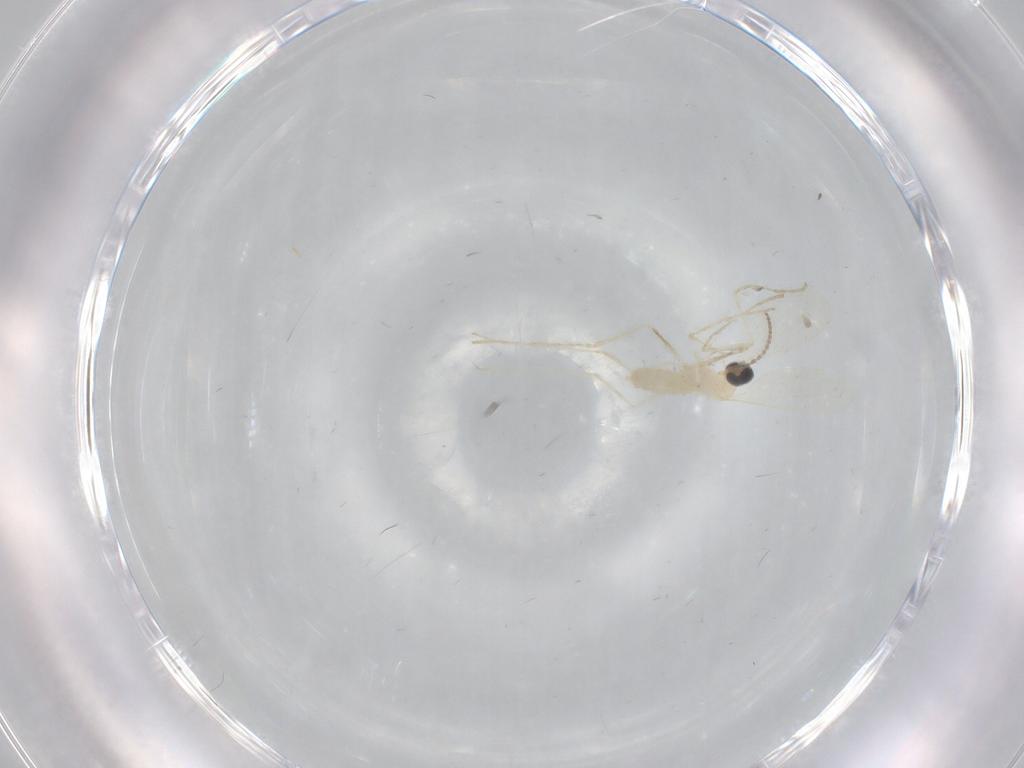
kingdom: Animalia
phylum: Arthropoda
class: Insecta
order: Diptera
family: Cecidomyiidae
